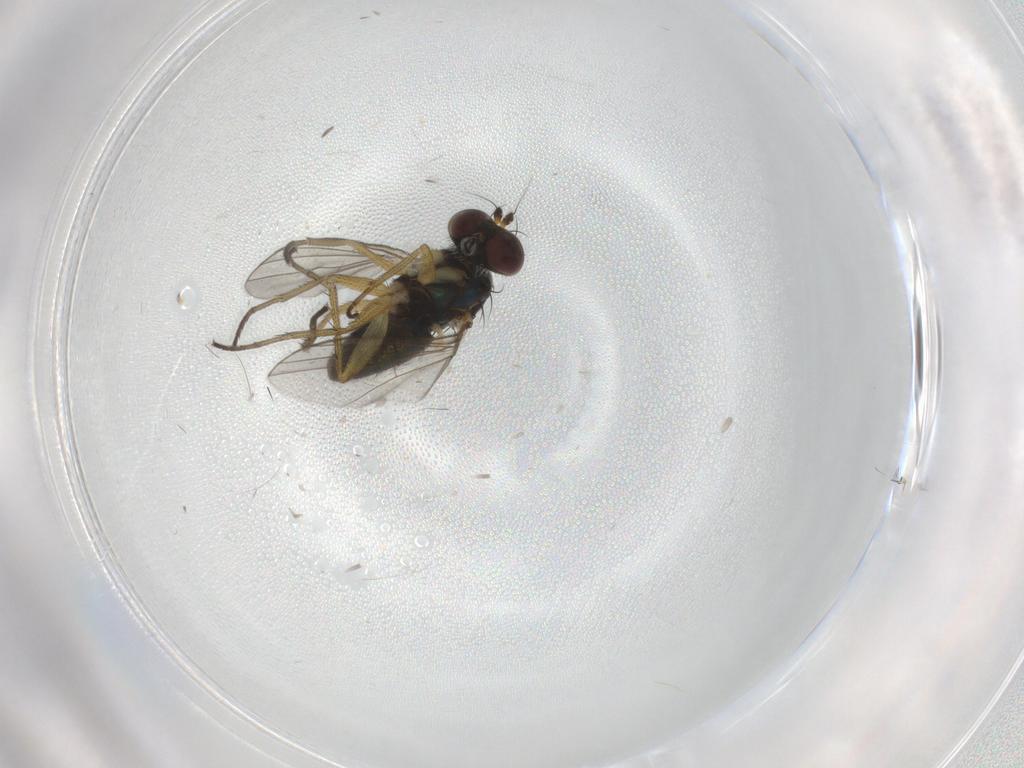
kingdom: Animalia
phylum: Arthropoda
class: Insecta
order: Diptera
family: Cecidomyiidae
